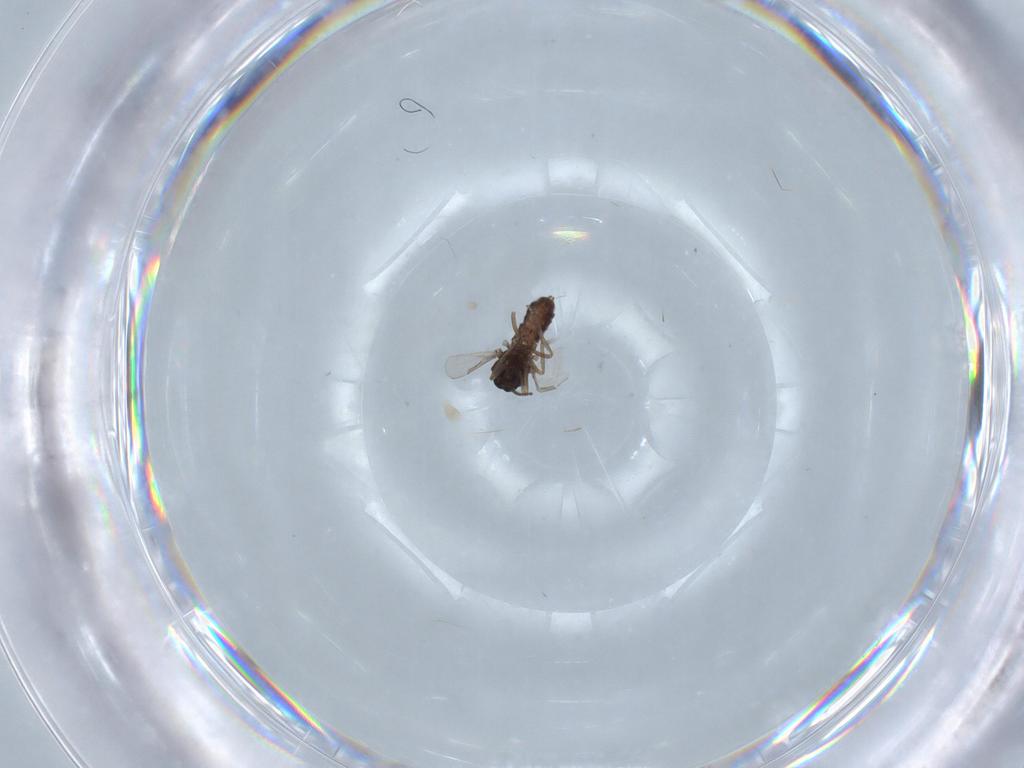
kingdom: Animalia
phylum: Arthropoda
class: Insecta
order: Diptera
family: Ceratopogonidae
